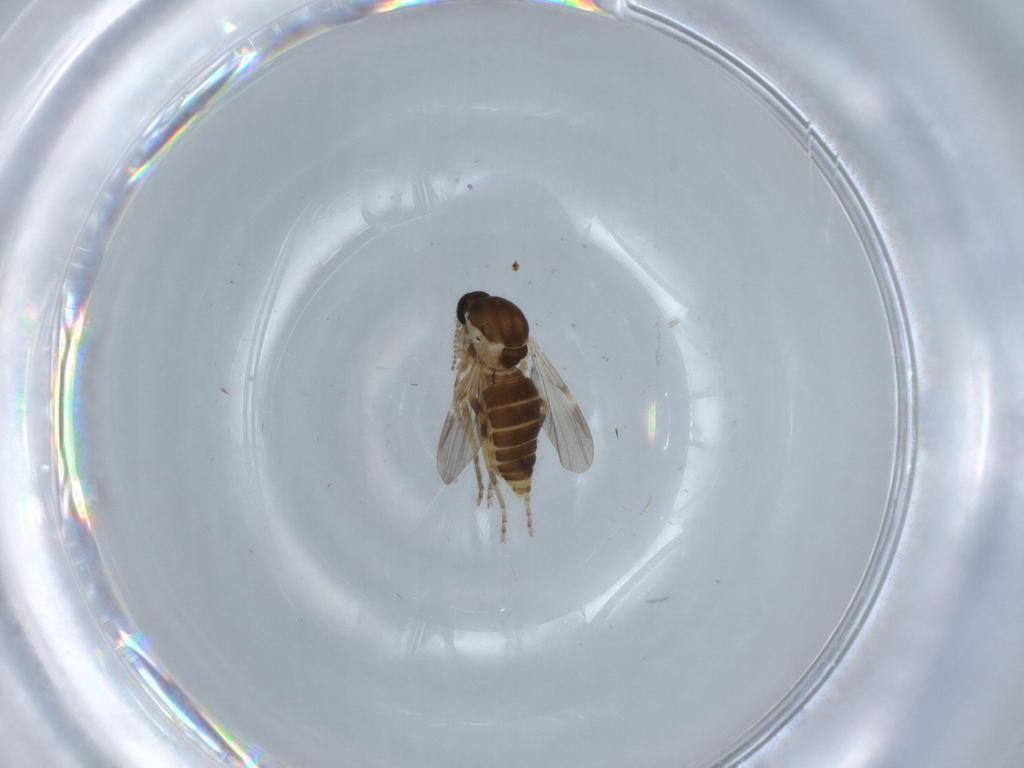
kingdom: Animalia
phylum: Arthropoda
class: Insecta
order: Diptera
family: Ceratopogonidae
